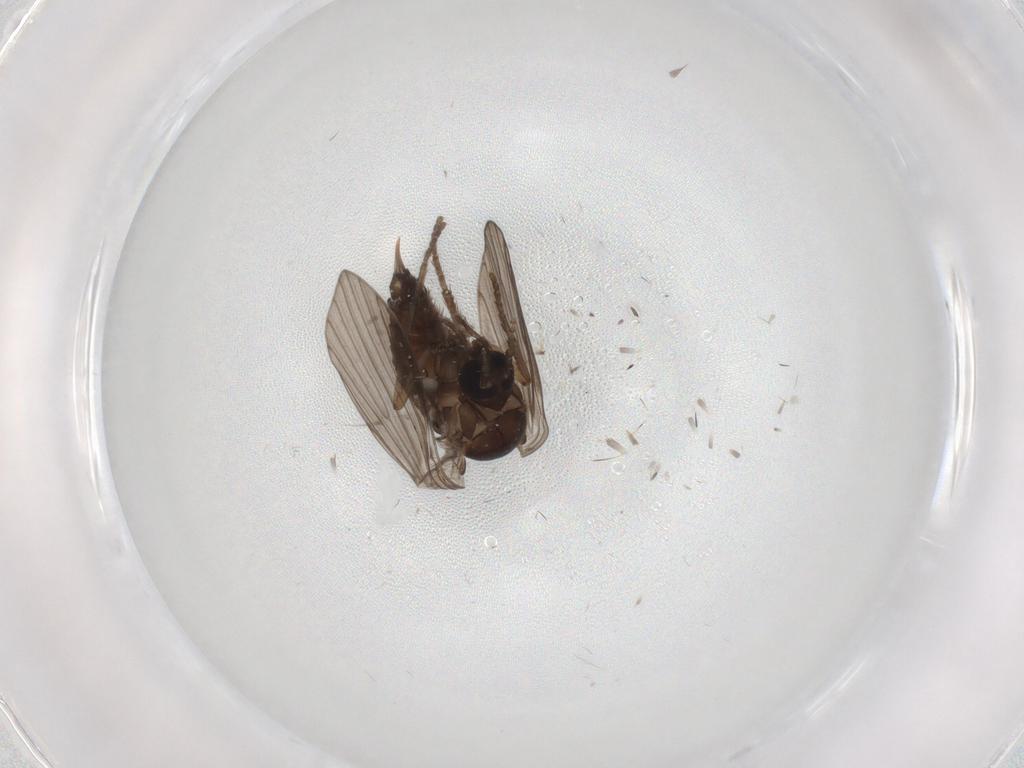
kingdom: Animalia
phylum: Arthropoda
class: Insecta
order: Diptera
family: Psychodidae
